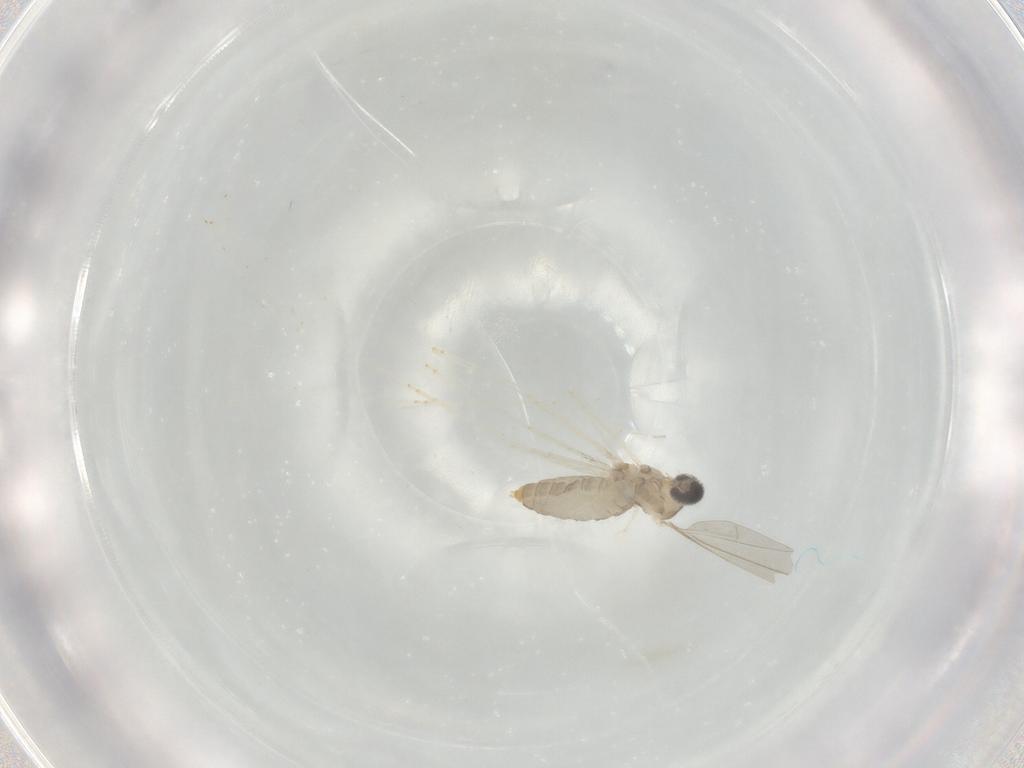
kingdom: Animalia
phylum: Arthropoda
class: Insecta
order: Diptera
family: Cecidomyiidae
